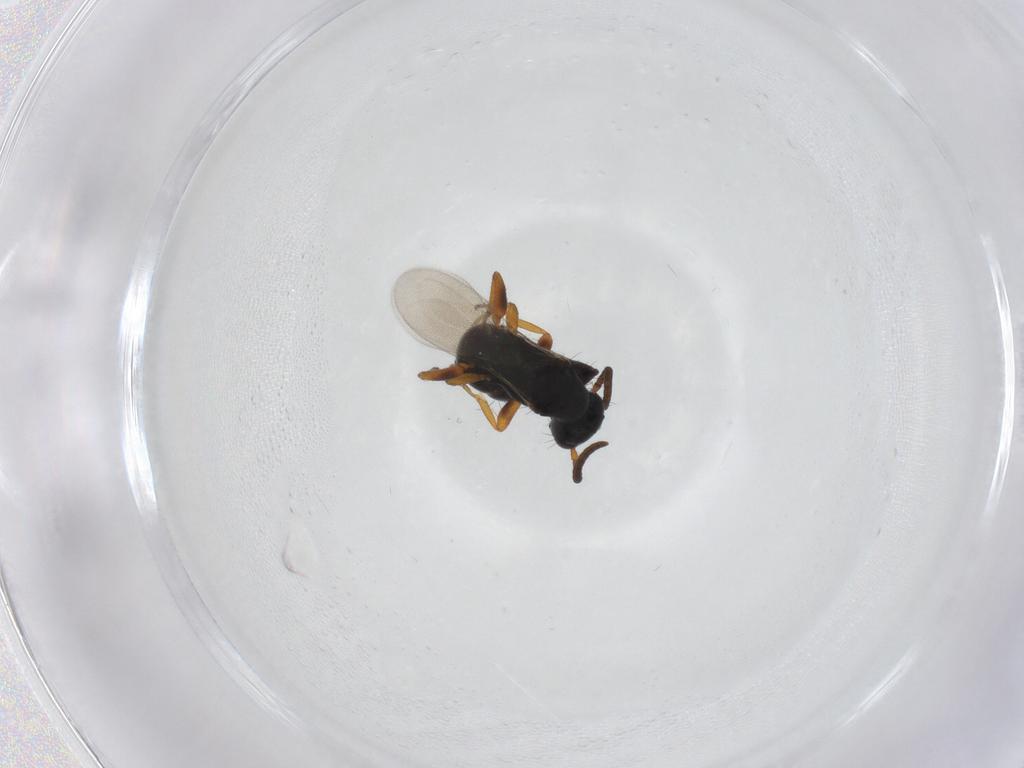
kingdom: Animalia
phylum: Arthropoda
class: Insecta
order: Hymenoptera
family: Bethylidae
